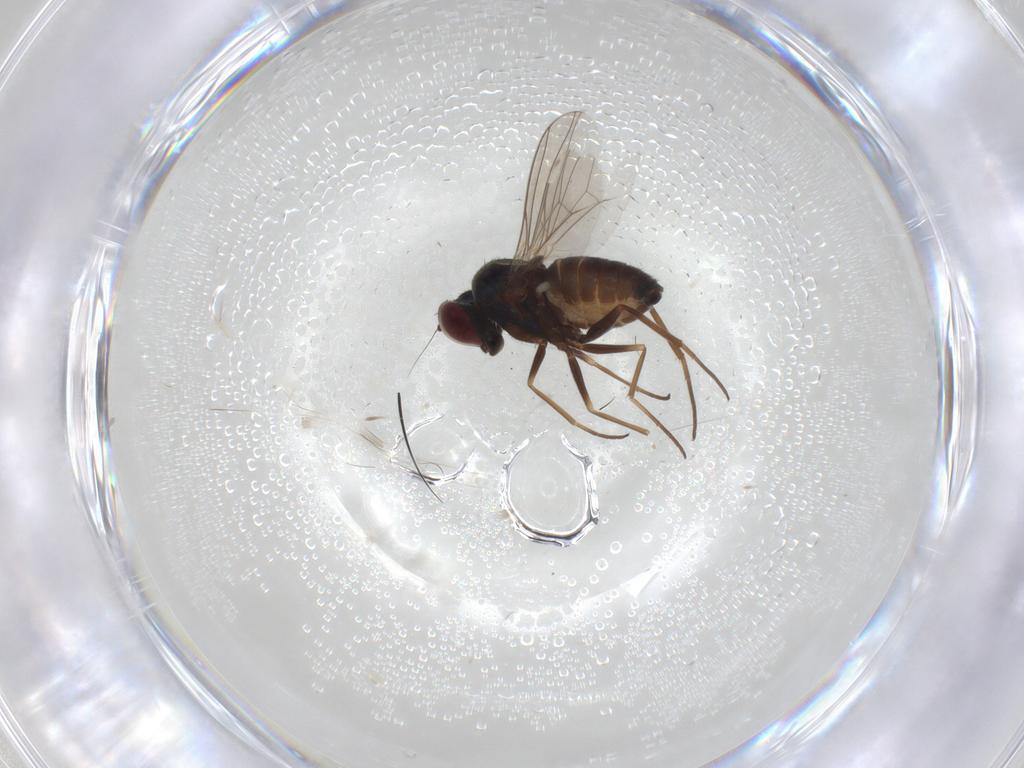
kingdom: Animalia
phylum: Arthropoda
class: Insecta
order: Diptera
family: Dolichopodidae
